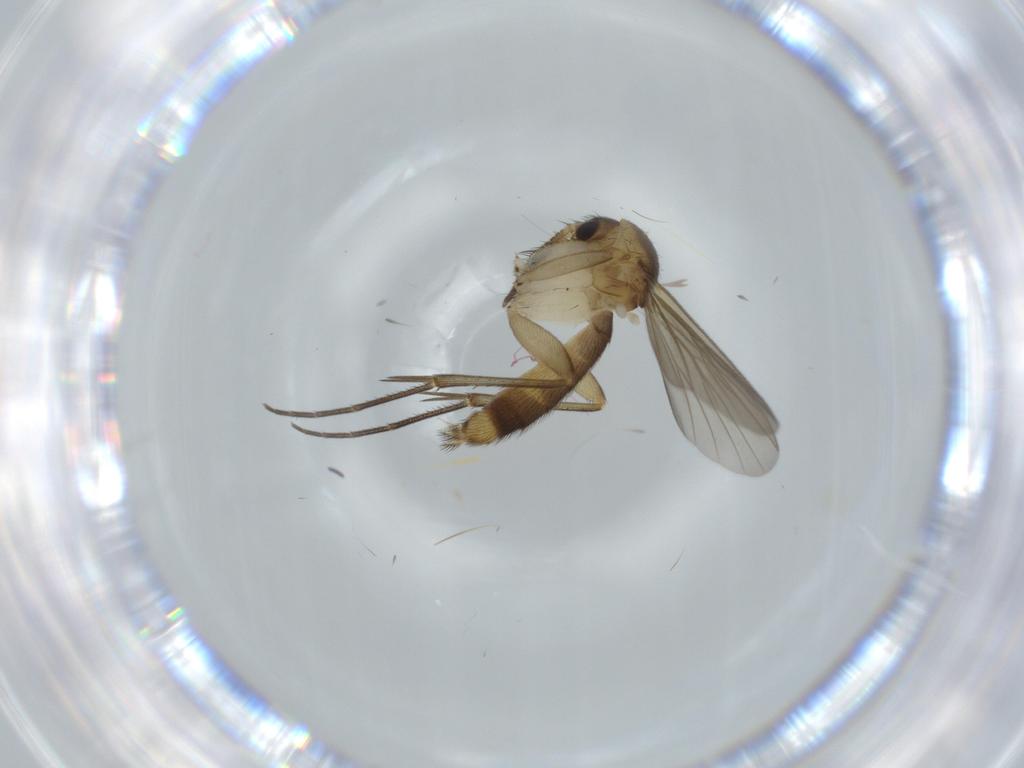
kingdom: Animalia
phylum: Arthropoda
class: Insecta
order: Diptera
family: Mycetophilidae
